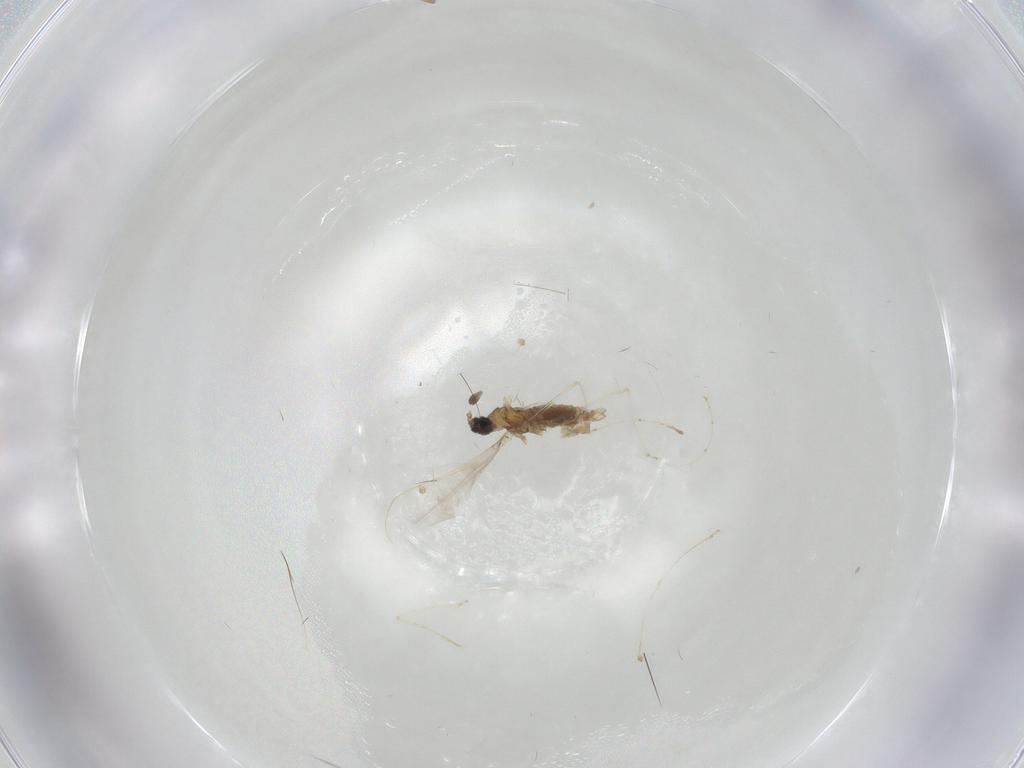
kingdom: Animalia
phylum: Arthropoda
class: Insecta
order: Diptera
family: Cecidomyiidae
